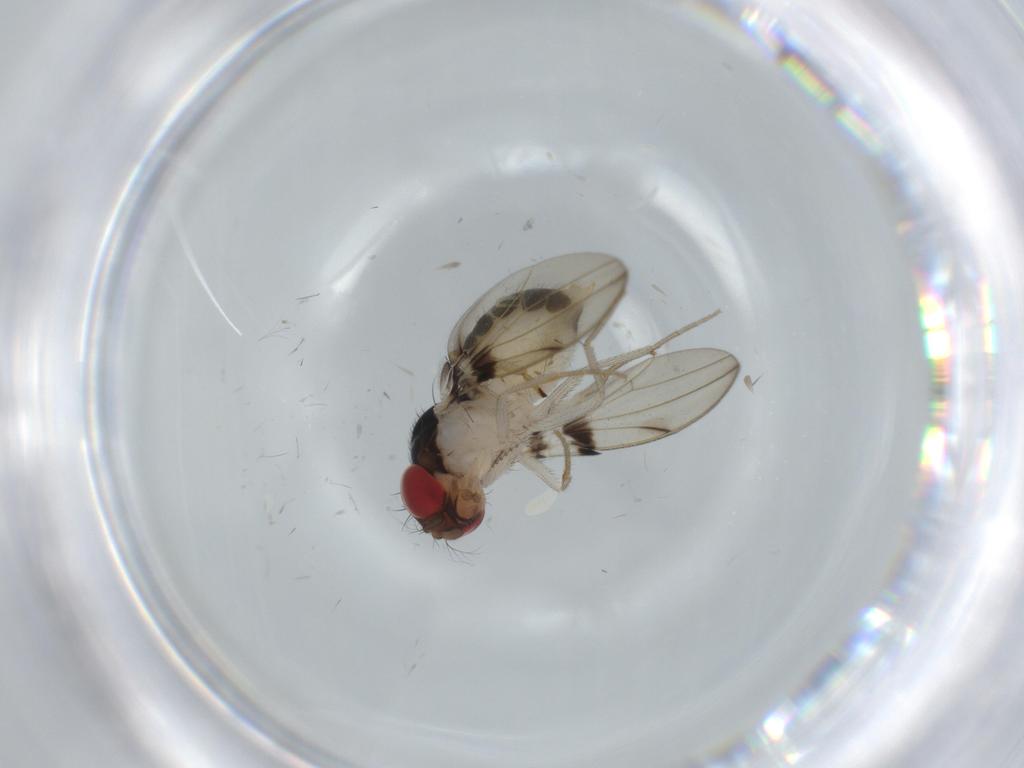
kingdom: Animalia
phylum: Arthropoda
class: Insecta
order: Diptera
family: Drosophilidae
